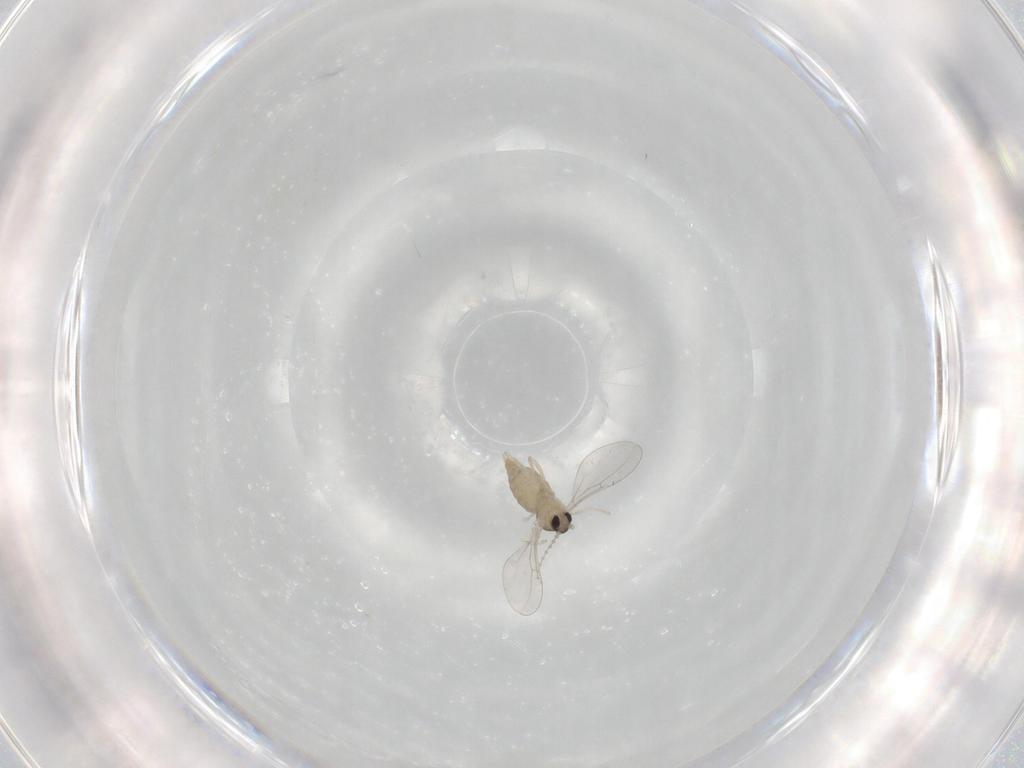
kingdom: Animalia
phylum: Arthropoda
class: Insecta
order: Diptera
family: Cecidomyiidae
